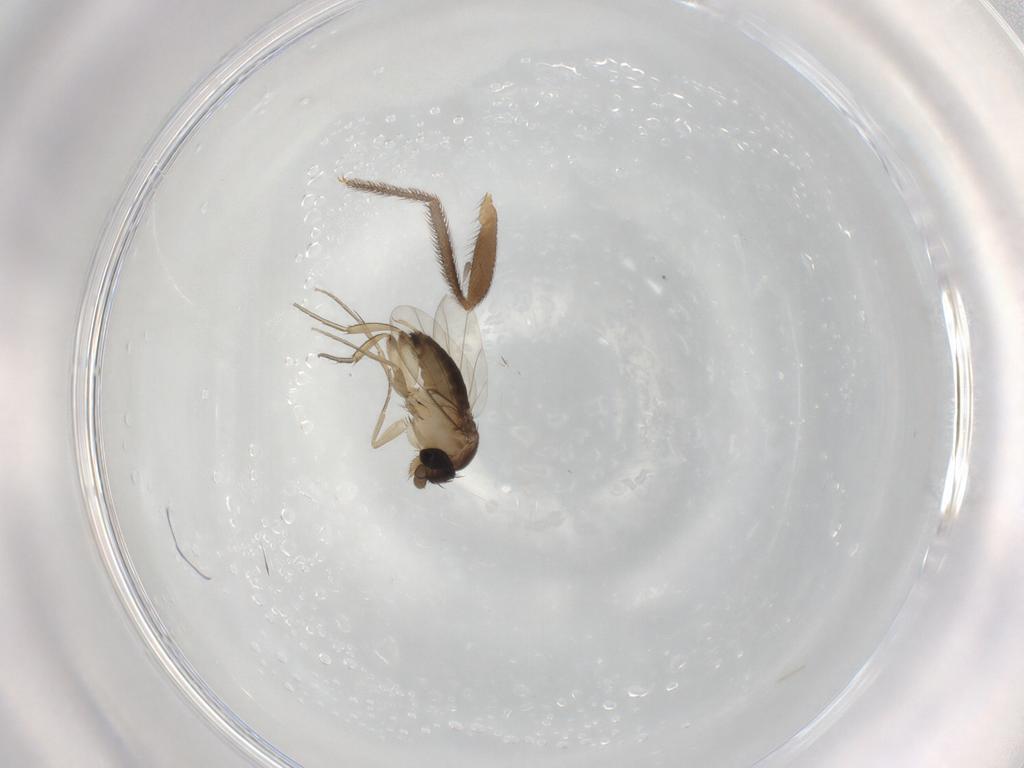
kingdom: Animalia
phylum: Arthropoda
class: Insecta
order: Diptera
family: Phoridae
